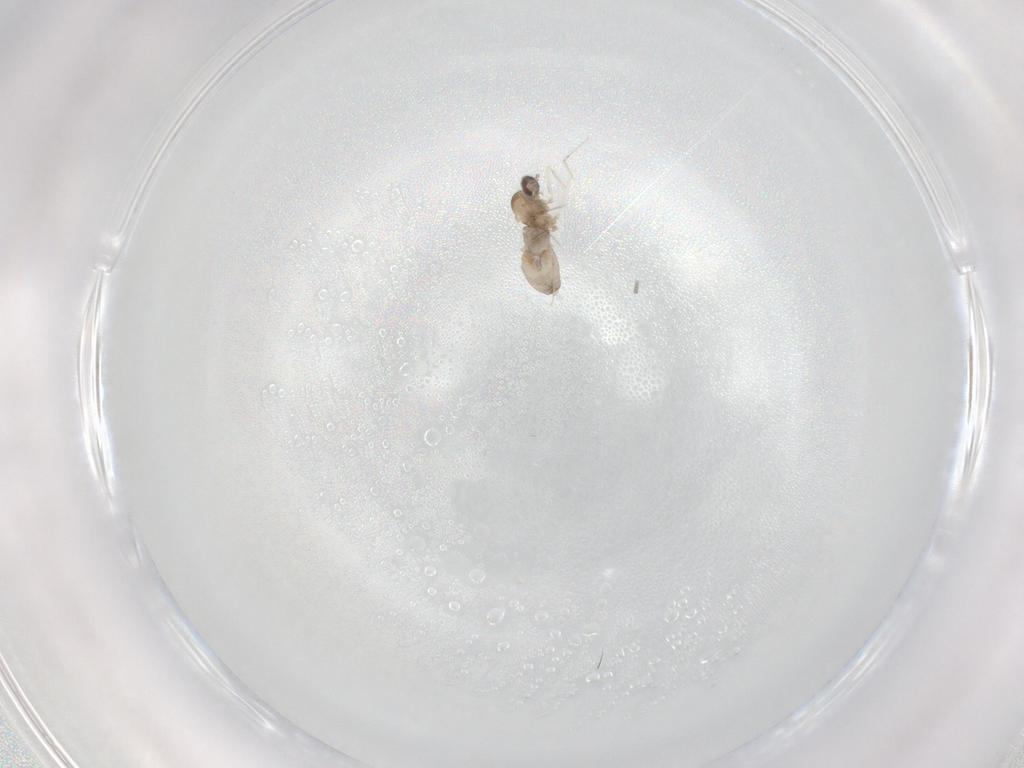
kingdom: Animalia
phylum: Arthropoda
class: Insecta
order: Diptera
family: Cecidomyiidae
